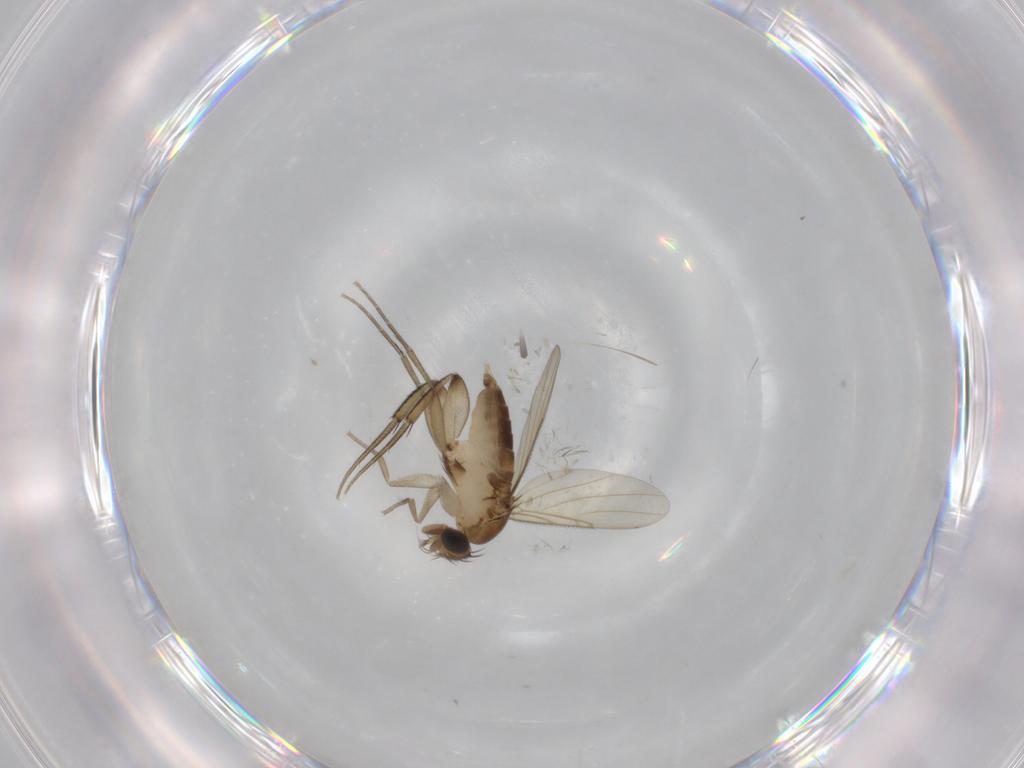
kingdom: Animalia
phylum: Arthropoda
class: Insecta
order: Diptera
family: Phoridae
